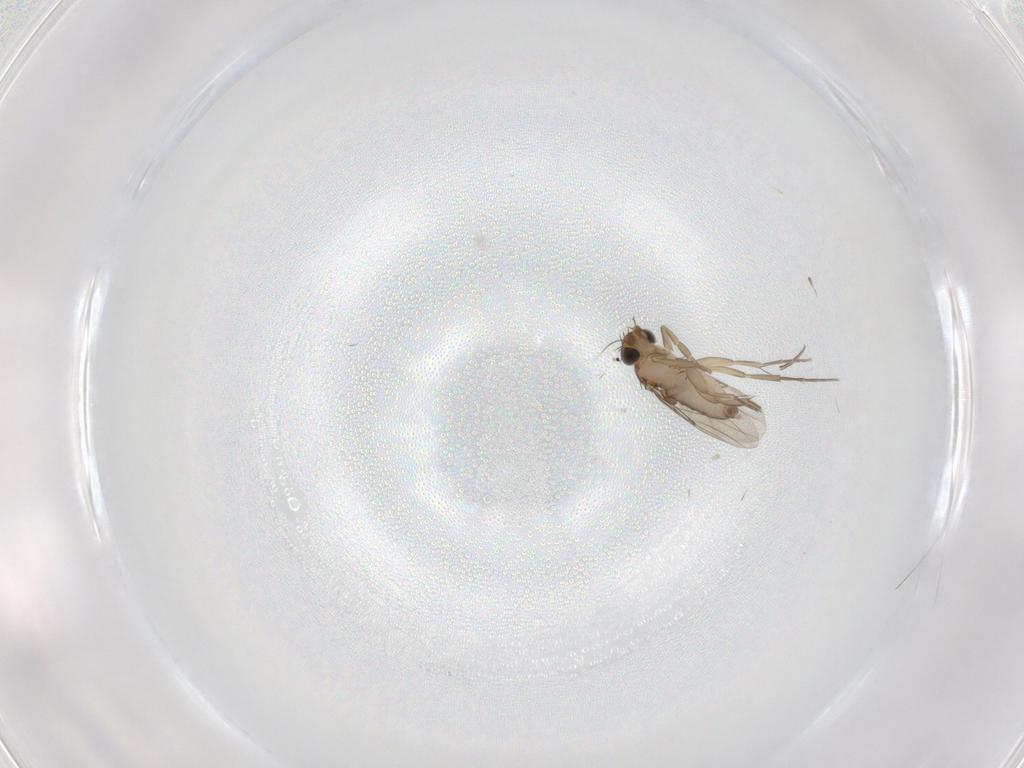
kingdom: Animalia
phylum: Arthropoda
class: Insecta
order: Diptera
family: Phoridae
